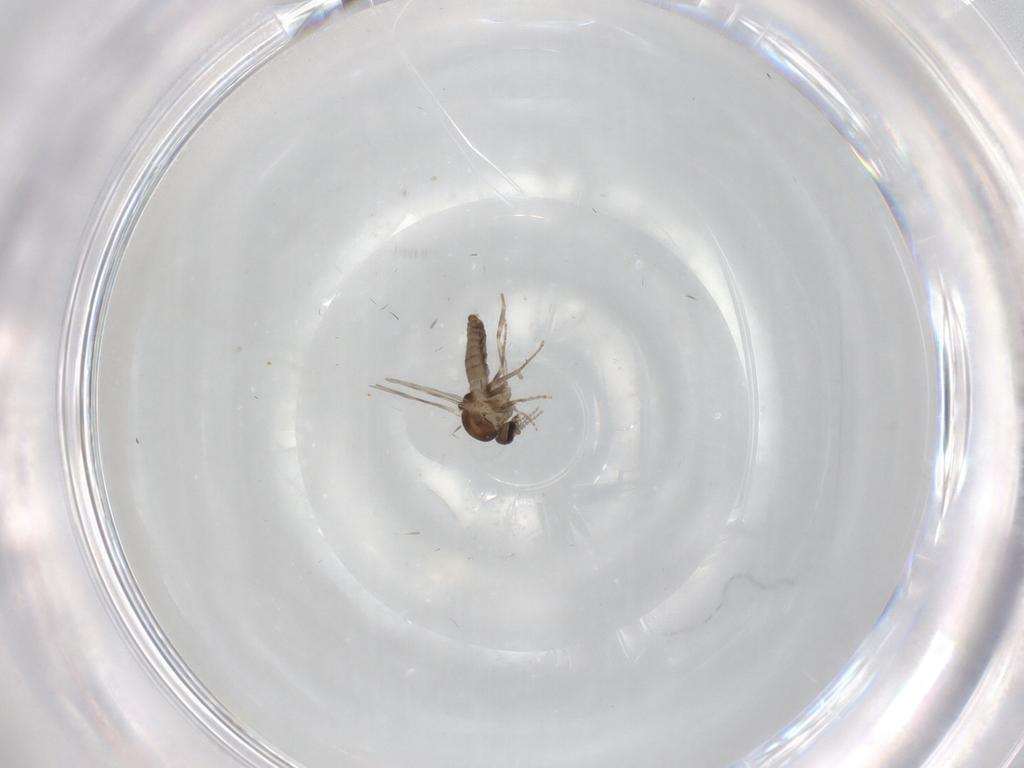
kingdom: Animalia
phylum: Arthropoda
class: Insecta
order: Diptera
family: Ceratopogonidae
